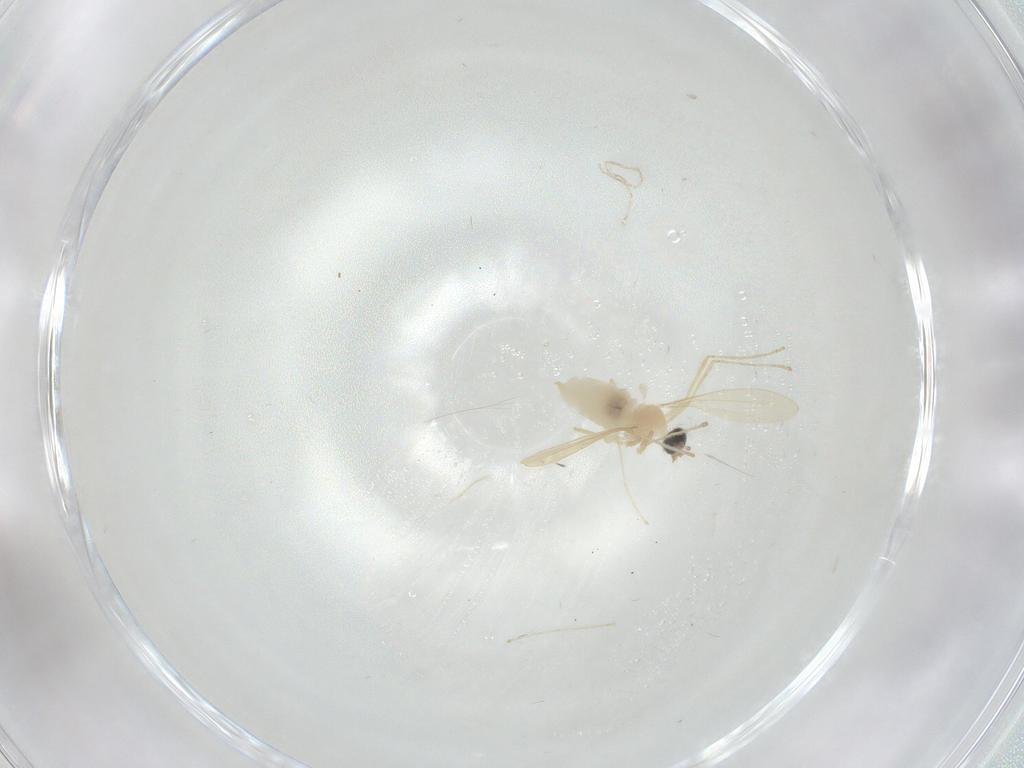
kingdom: Animalia
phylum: Arthropoda
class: Insecta
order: Diptera
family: Cecidomyiidae
